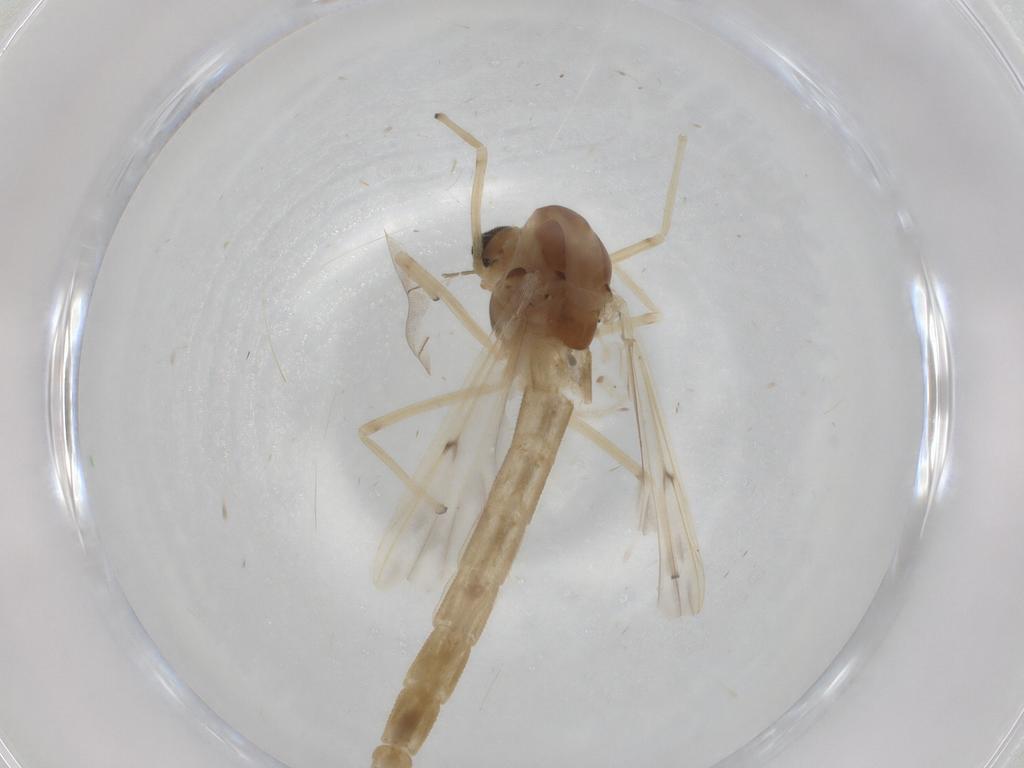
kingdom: Animalia
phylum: Arthropoda
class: Insecta
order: Diptera
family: Chironomidae
